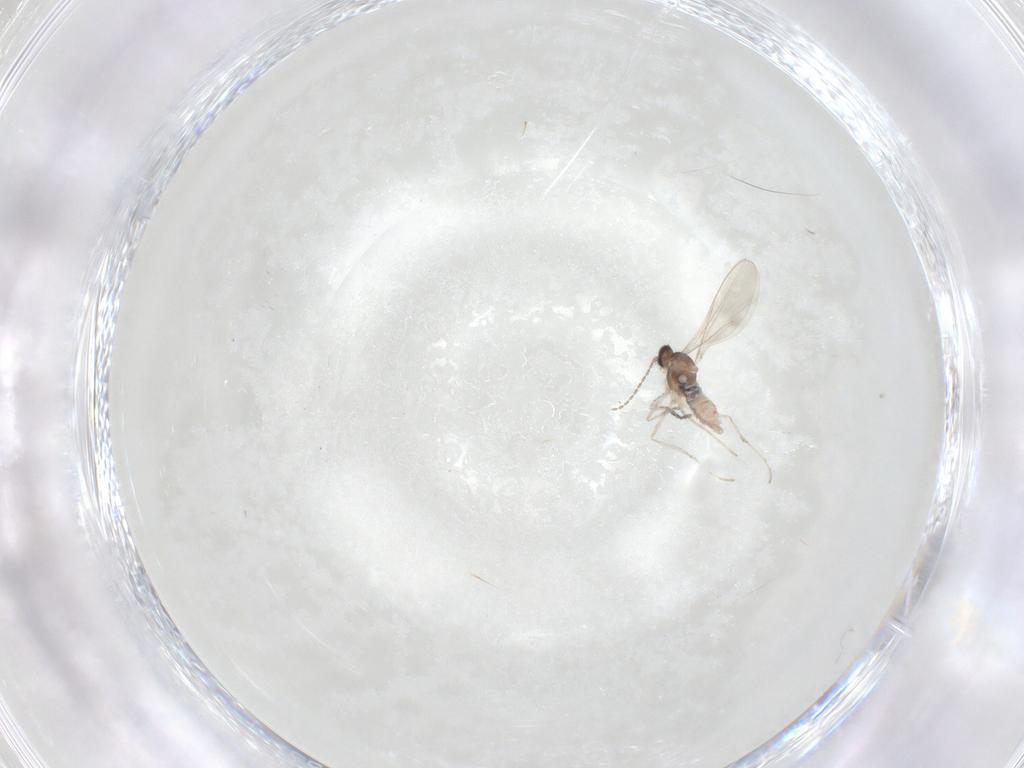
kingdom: Animalia
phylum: Arthropoda
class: Insecta
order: Diptera
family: Cecidomyiidae
